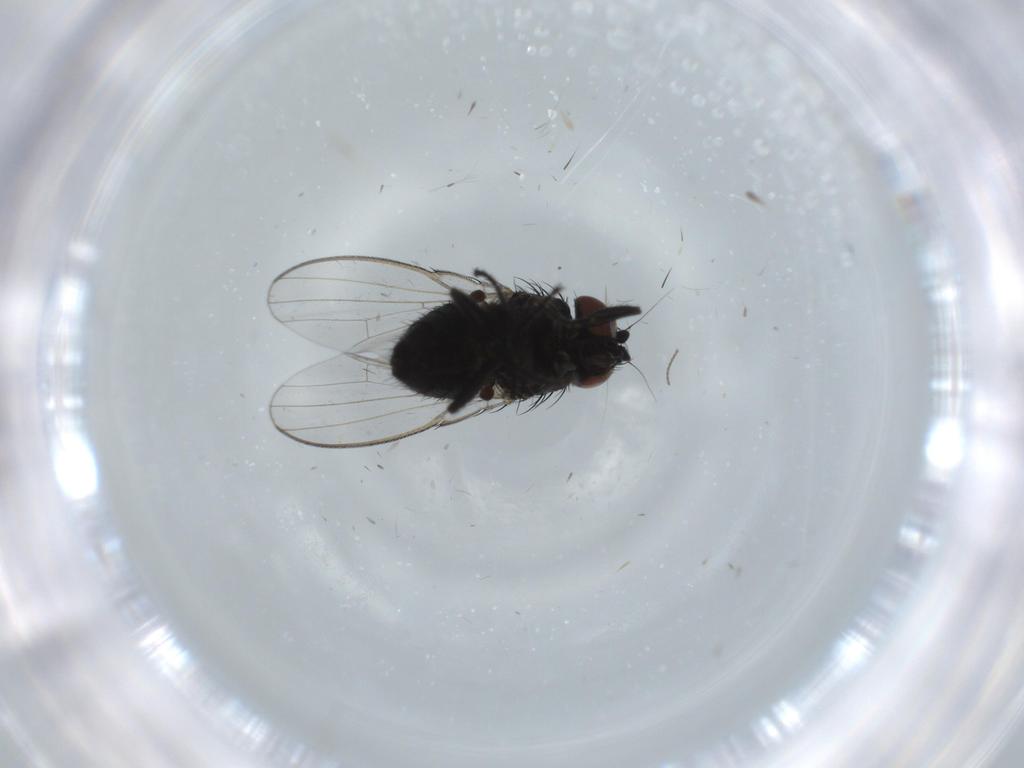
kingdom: Animalia
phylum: Arthropoda
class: Insecta
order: Diptera
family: Milichiidae
